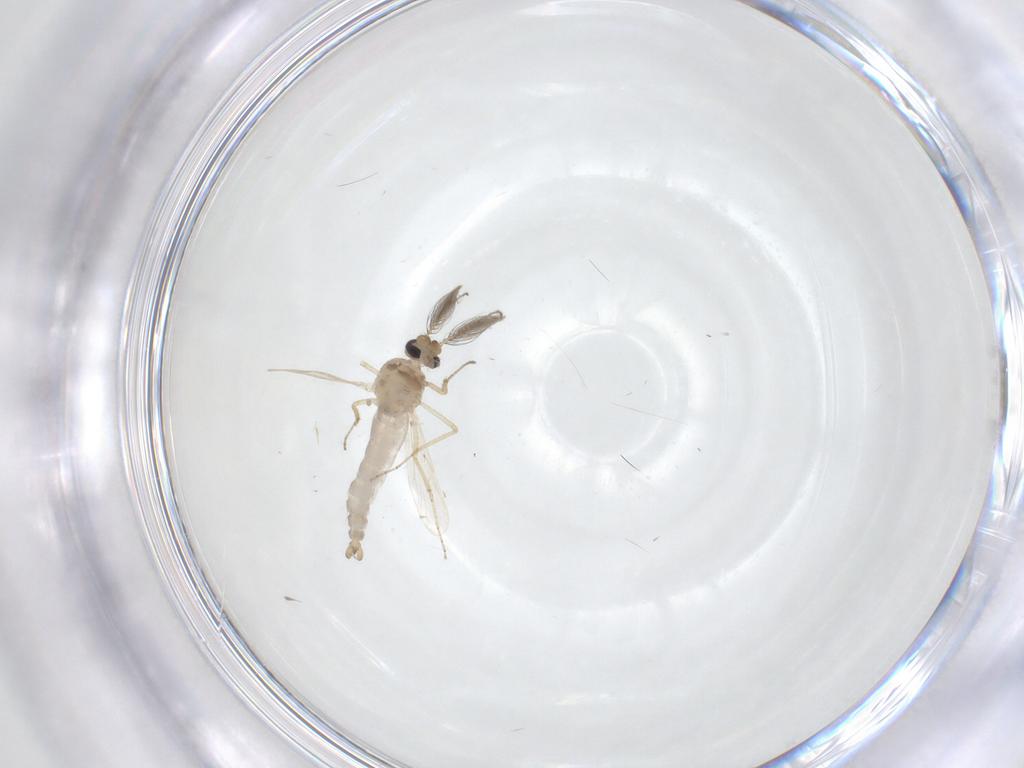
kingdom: Animalia
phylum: Arthropoda
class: Insecta
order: Diptera
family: Ceratopogonidae
